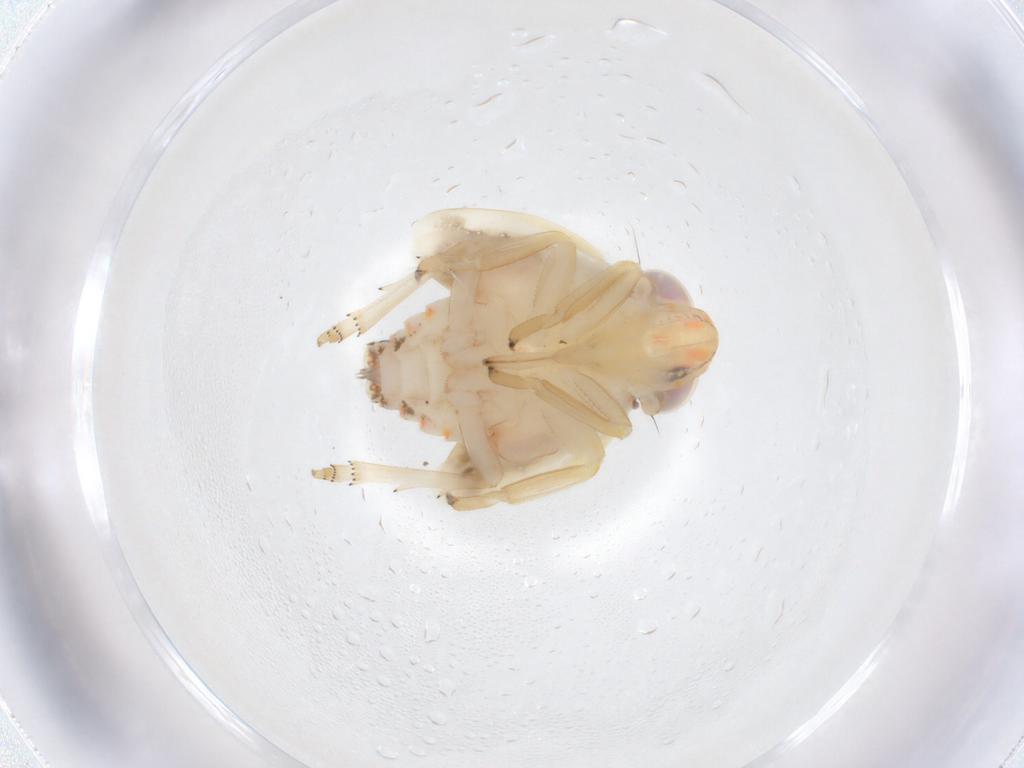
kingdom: Animalia
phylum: Arthropoda
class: Insecta
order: Hemiptera
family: Nogodinidae
